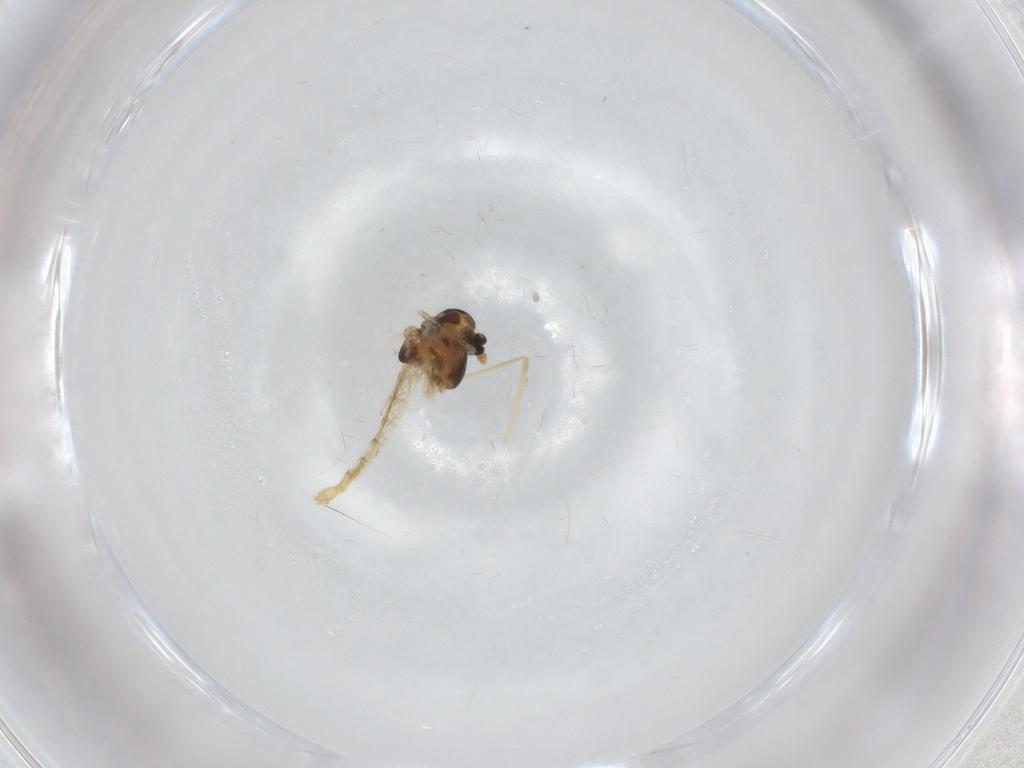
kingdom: Animalia
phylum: Arthropoda
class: Insecta
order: Diptera
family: Chironomidae
